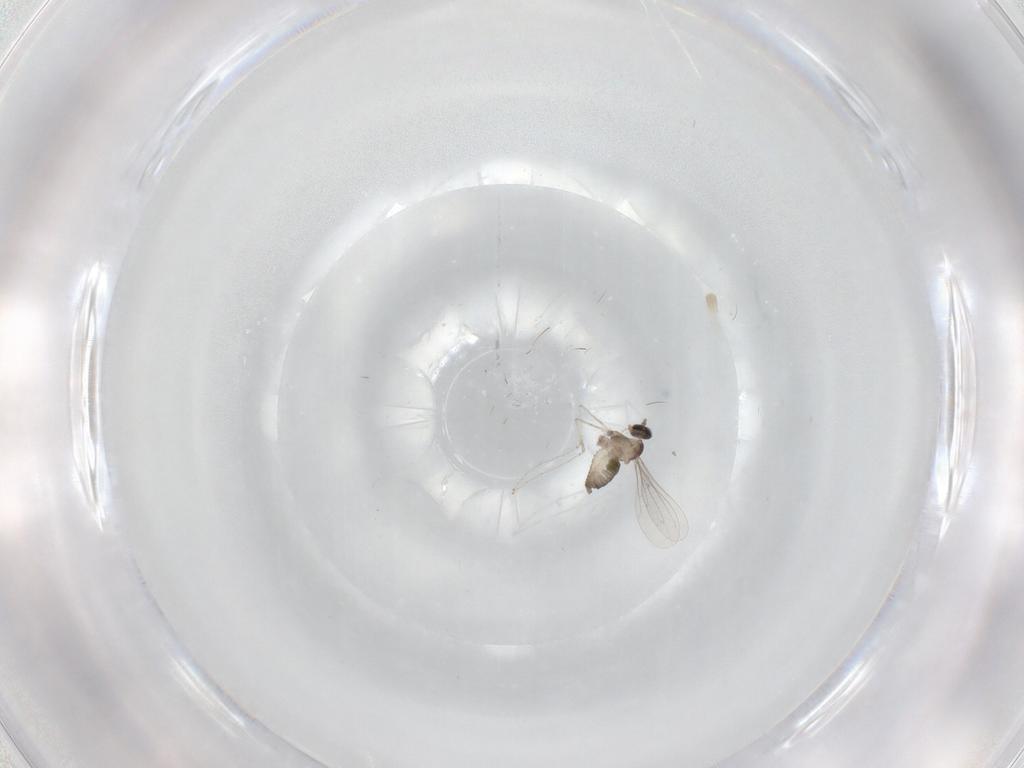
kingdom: Animalia
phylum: Arthropoda
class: Insecta
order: Diptera
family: Cecidomyiidae
